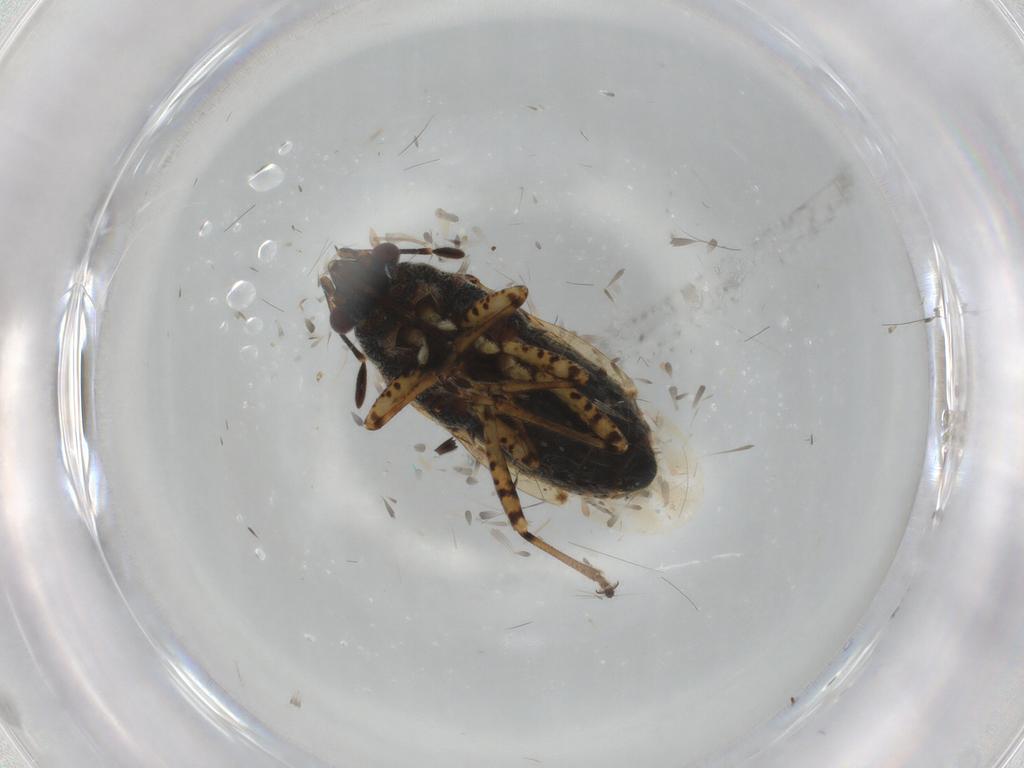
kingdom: Animalia
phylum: Arthropoda
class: Insecta
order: Hemiptera
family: Lygaeidae
